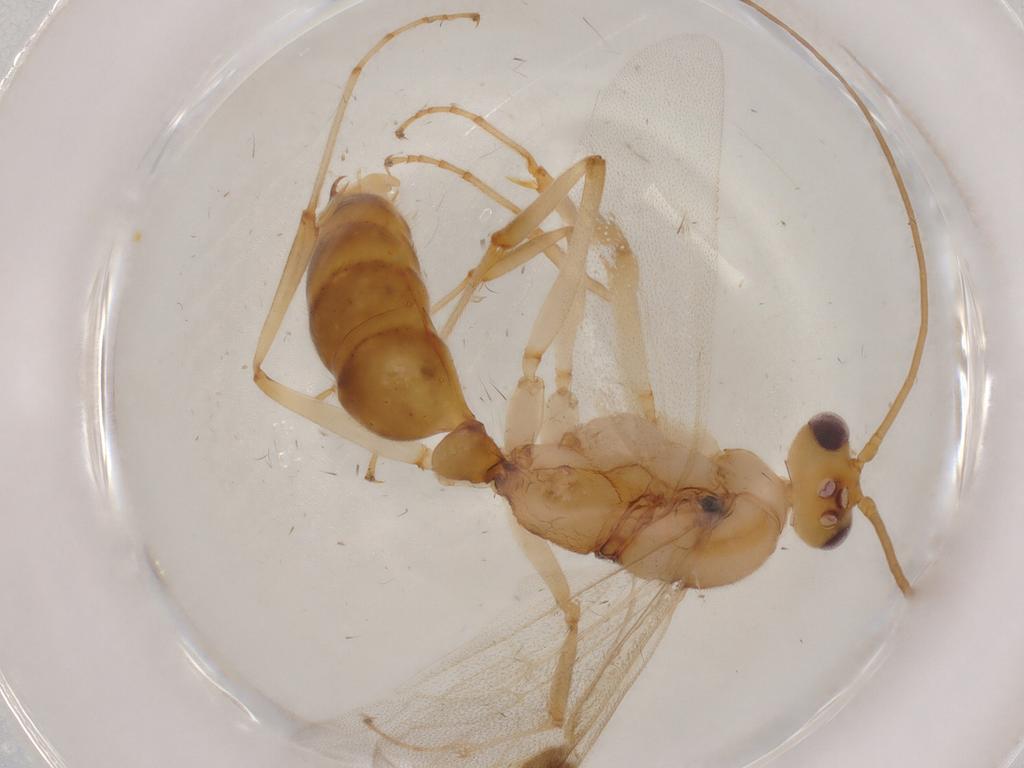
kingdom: Animalia
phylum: Arthropoda
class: Insecta
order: Hymenoptera
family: Formicidae
